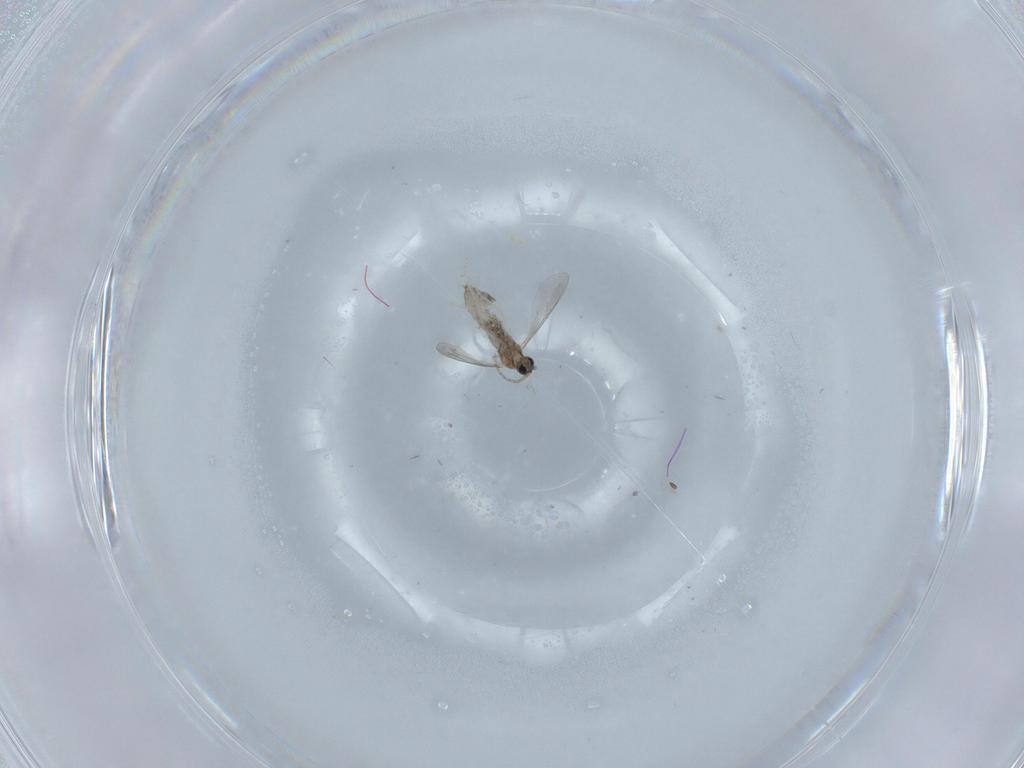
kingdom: Animalia
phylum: Arthropoda
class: Insecta
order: Diptera
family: Cecidomyiidae
